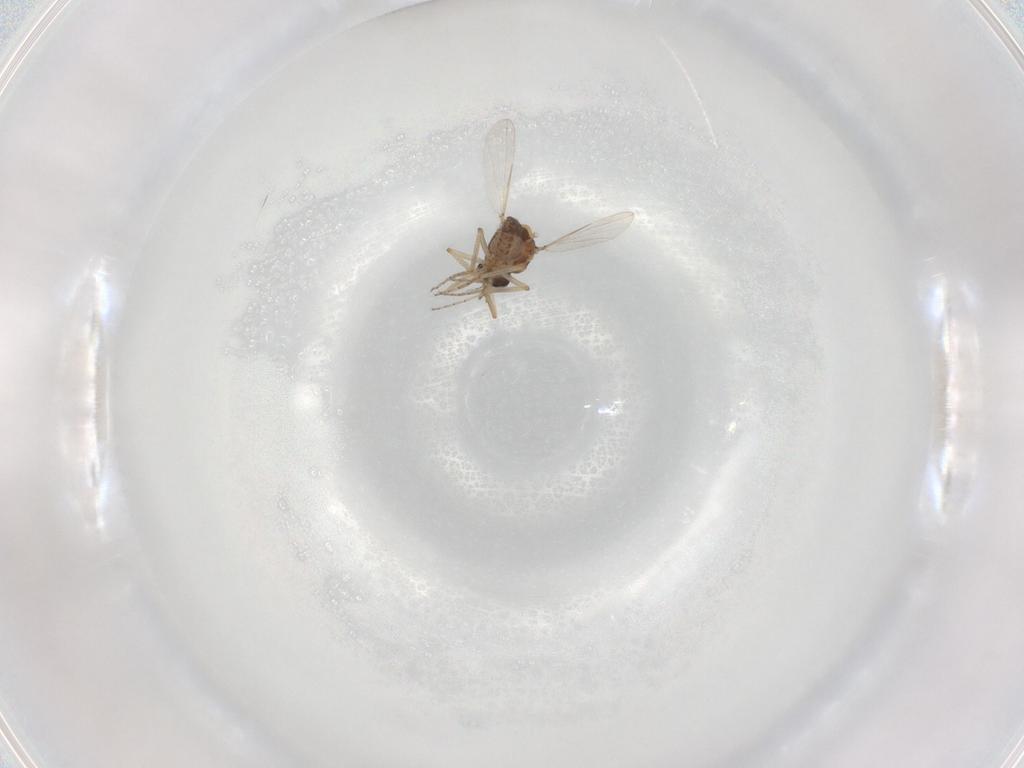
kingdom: Animalia
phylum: Arthropoda
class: Insecta
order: Diptera
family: Ceratopogonidae
